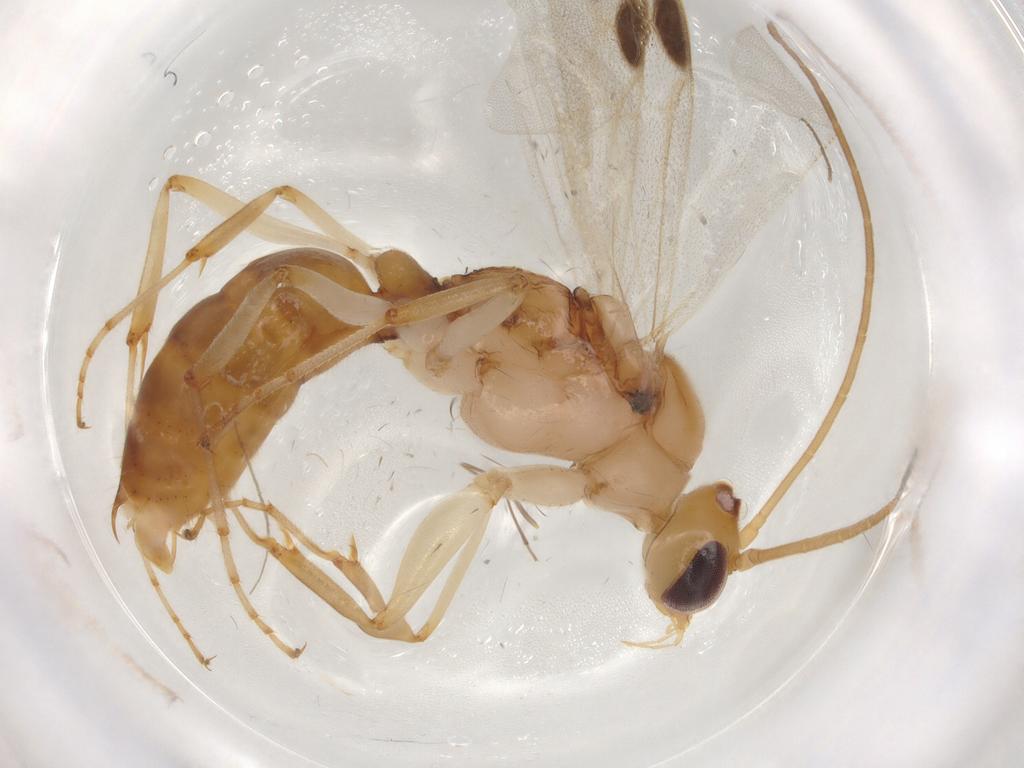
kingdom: Animalia
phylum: Arthropoda
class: Insecta
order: Hymenoptera
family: Formicidae
